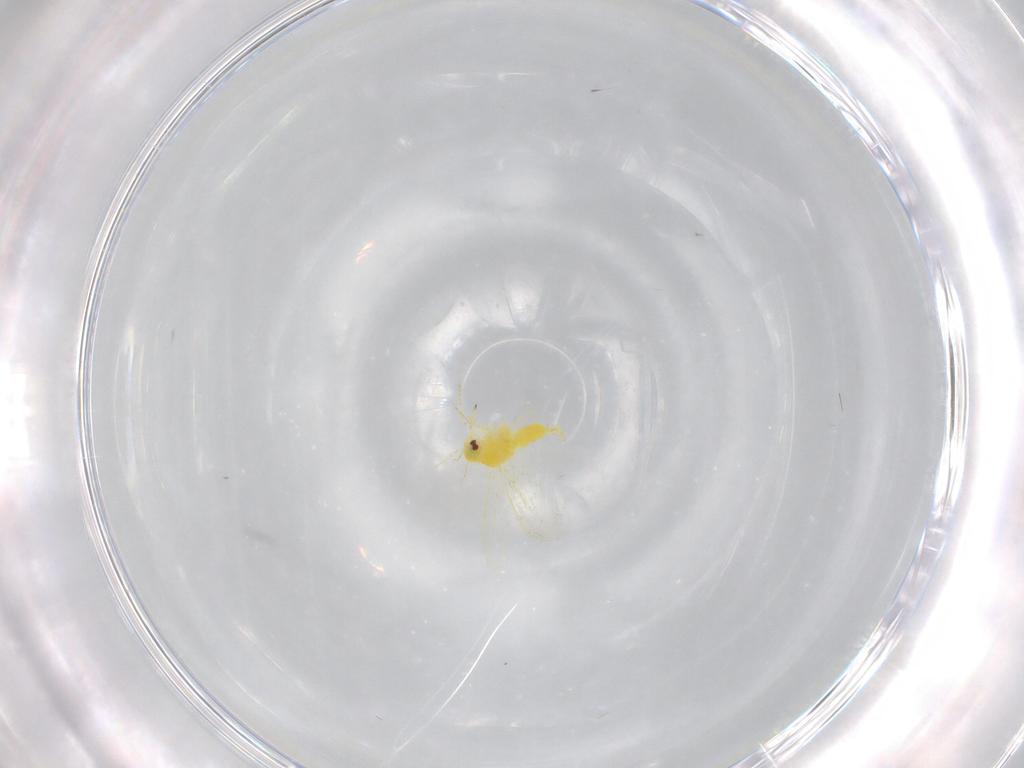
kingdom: Animalia
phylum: Arthropoda
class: Insecta
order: Hemiptera
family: Aleyrodidae
